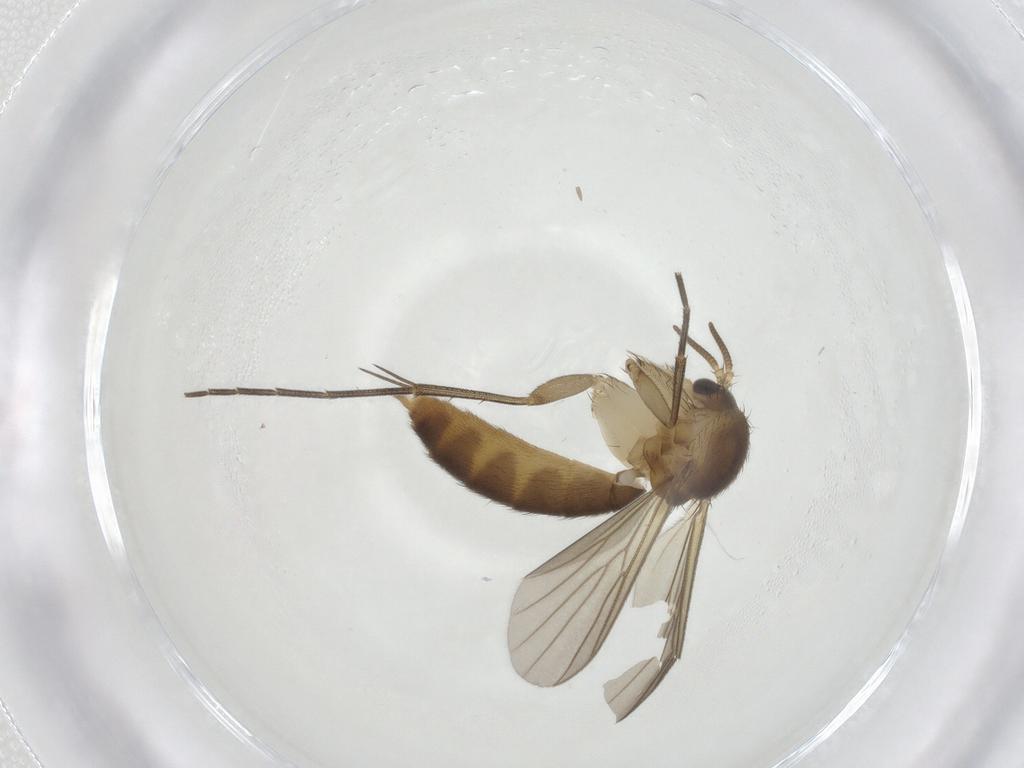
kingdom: Animalia
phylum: Arthropoda
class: Insecta
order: Diptera
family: Mycetophilidae
